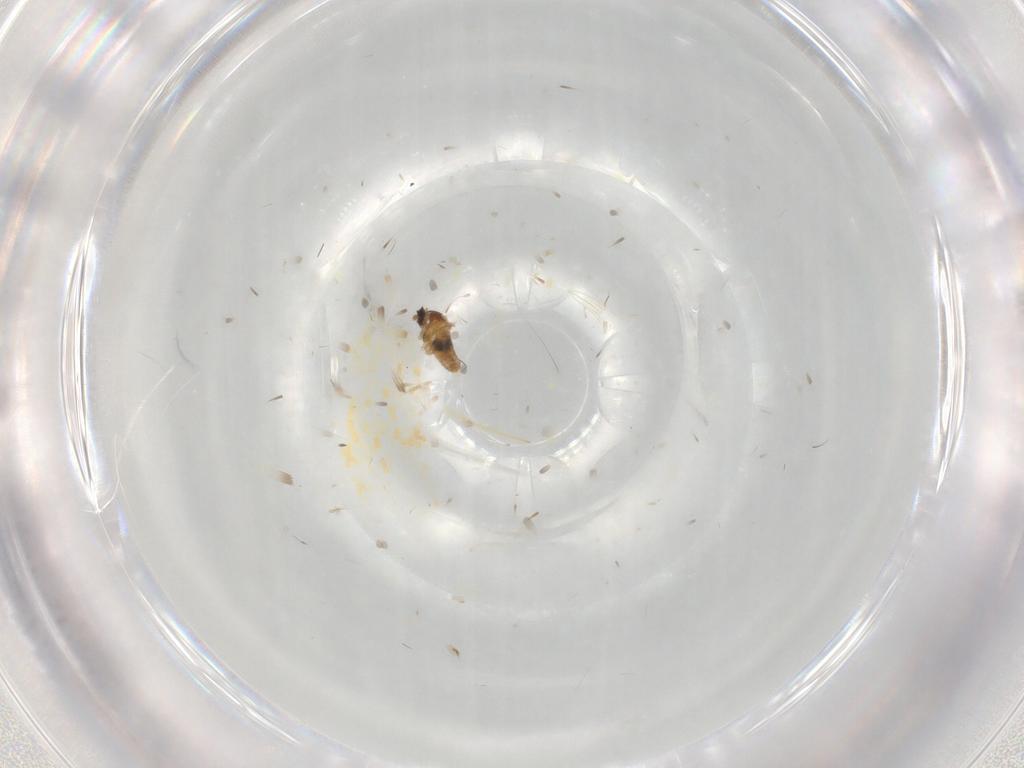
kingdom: Animalia
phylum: Arthropoda
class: Insecta
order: Diptera
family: Cecidomyiidae
